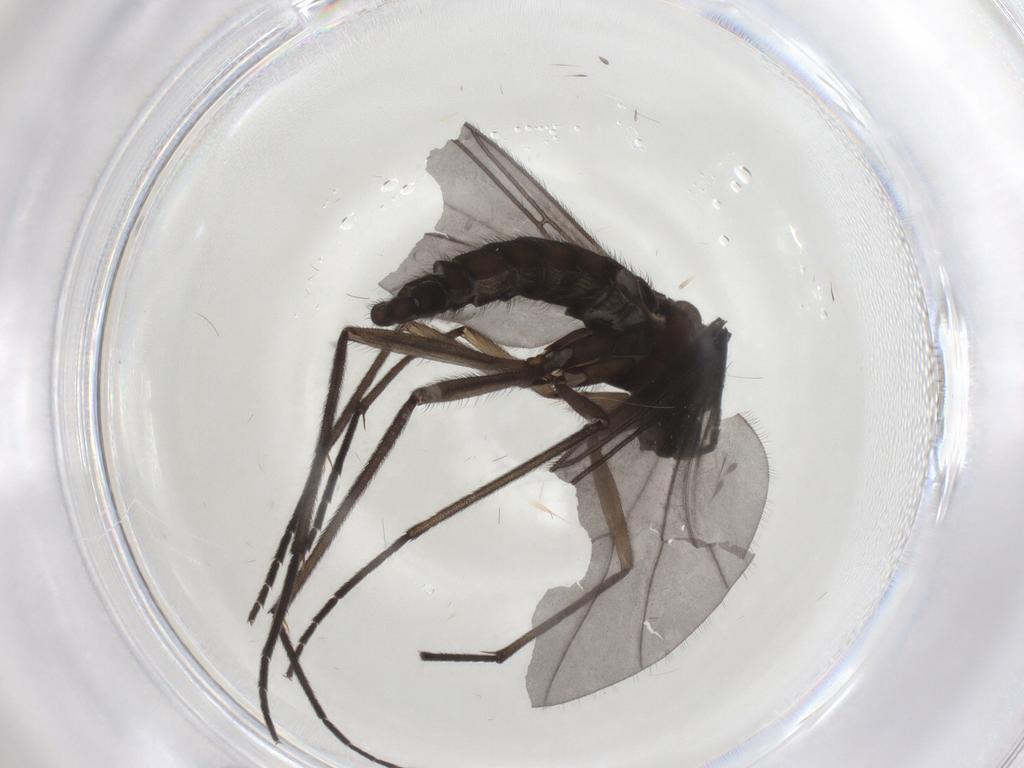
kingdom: Animalia
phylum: Arthropoda
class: Insecta
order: Diptera
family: Sciaridae
